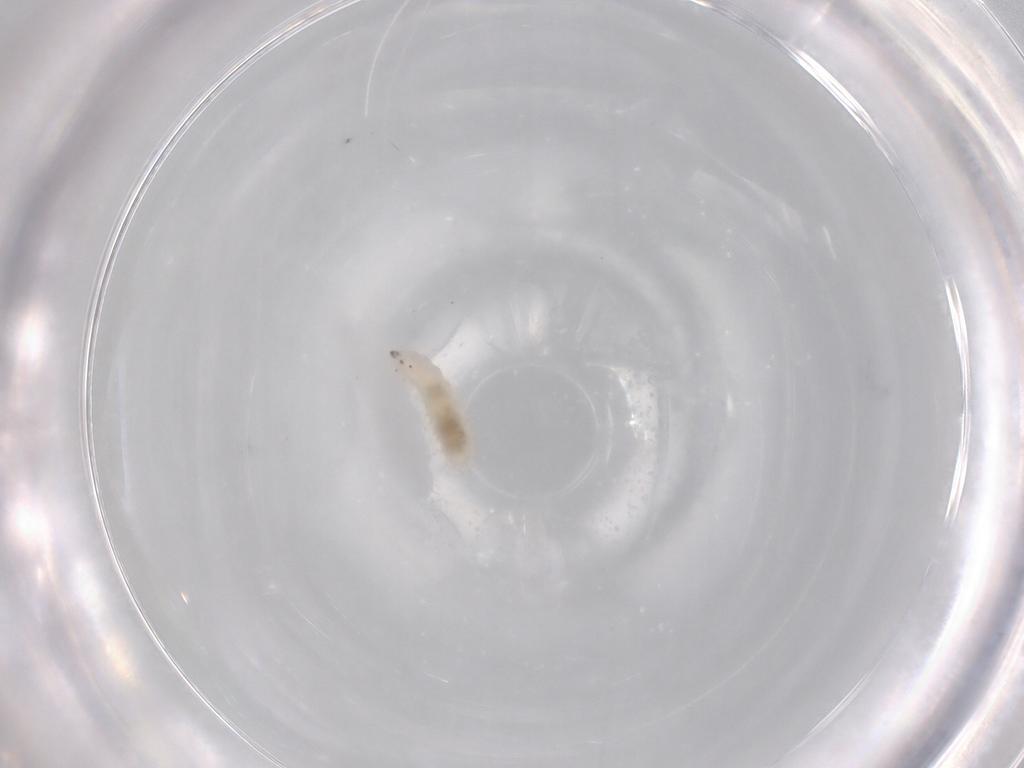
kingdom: Animalia
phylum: Arthropoda
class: Insecta
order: Diptera
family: Cecidomyiidae
